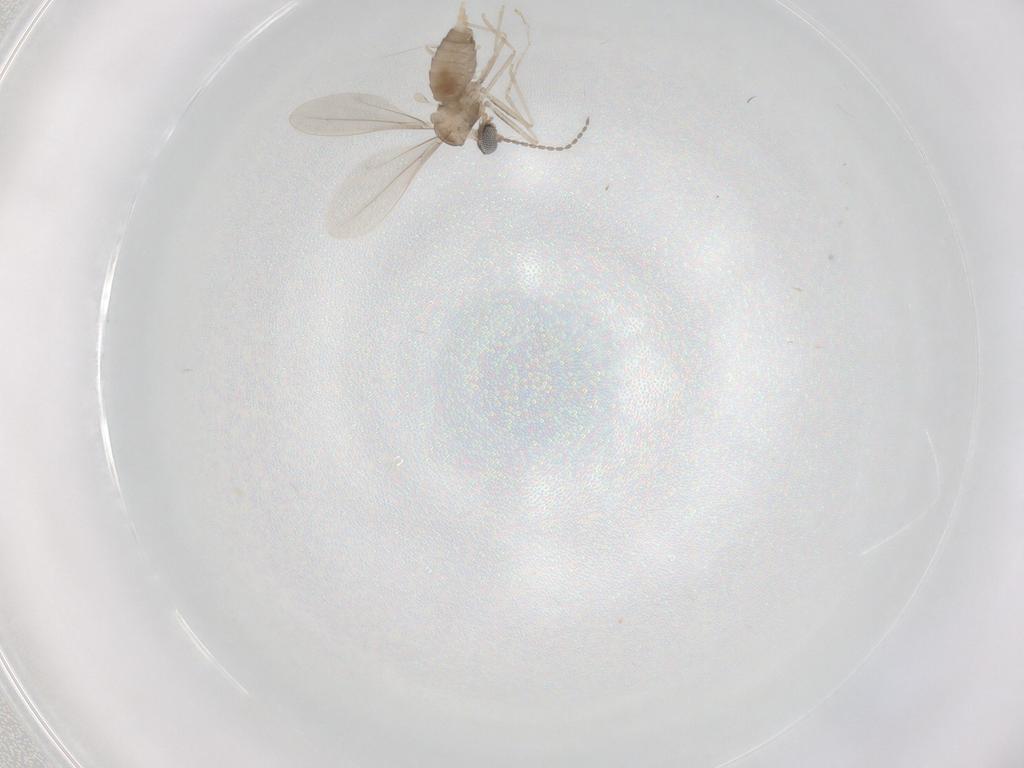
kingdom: Animalia
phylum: Arthropoda
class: Insecta
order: Diptera
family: Cecidomyiidae
